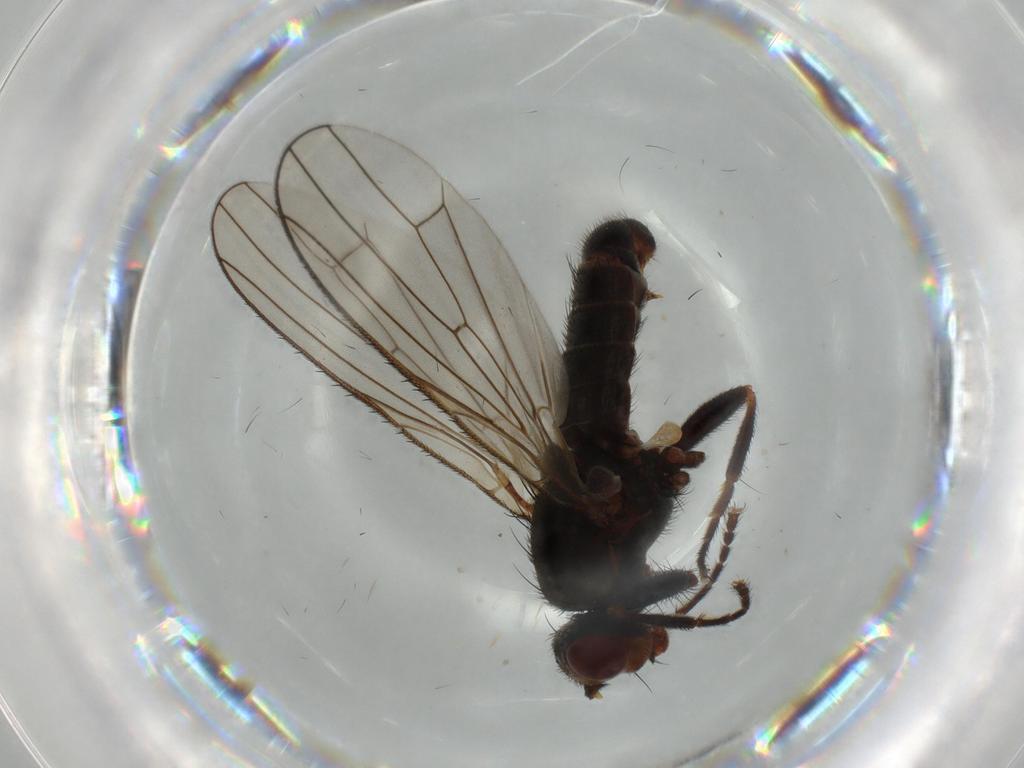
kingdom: Animalia
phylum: Arthropoda
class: Insecta
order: Diptera
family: Heleomyzidae
